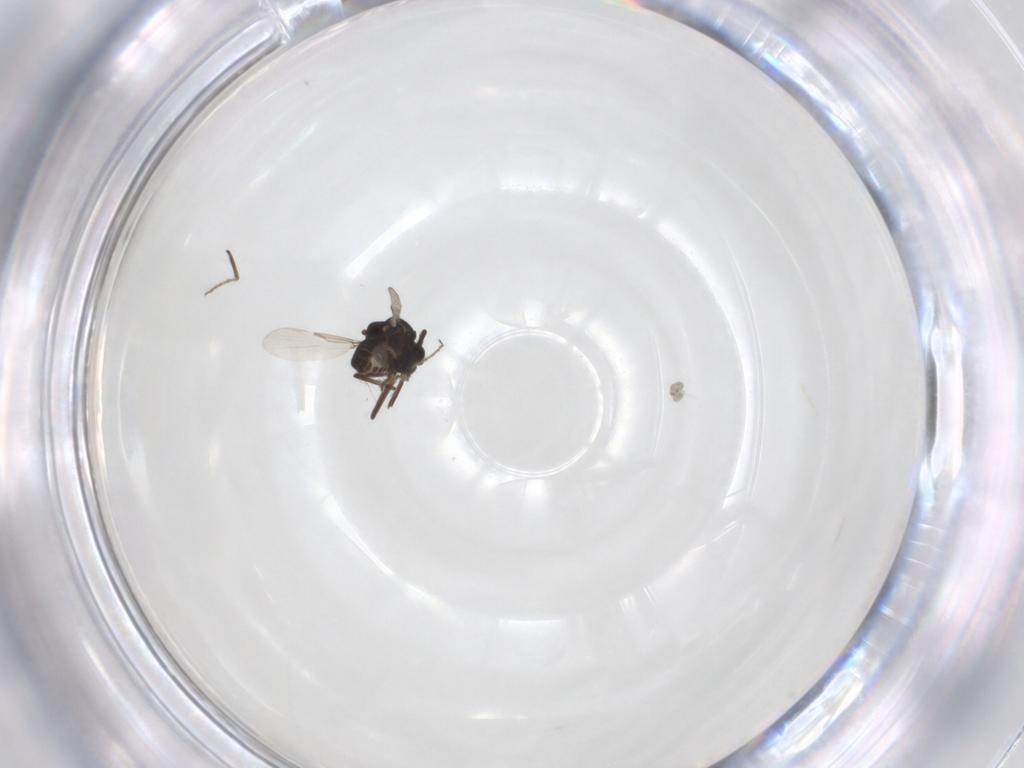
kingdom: Animalia
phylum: Arthropoda
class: Insecta
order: Diptera
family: Ceratopogonidae
